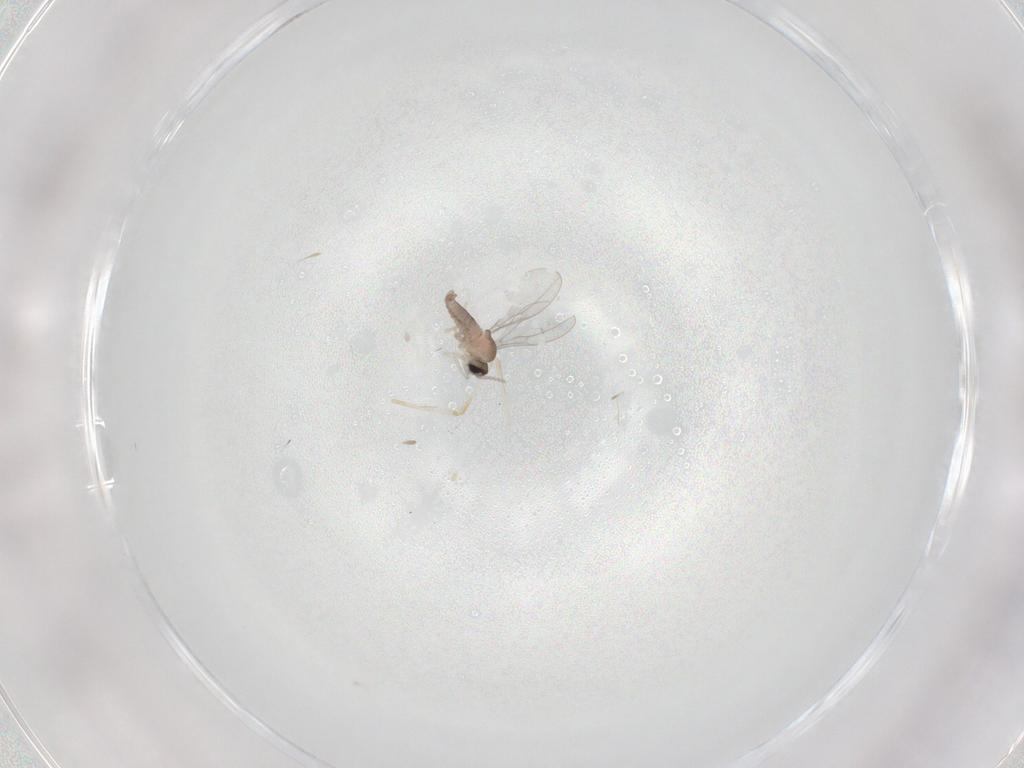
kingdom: Animalia
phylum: Arthropoda
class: Insecta
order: Diptera
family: Cecidomyiidae
